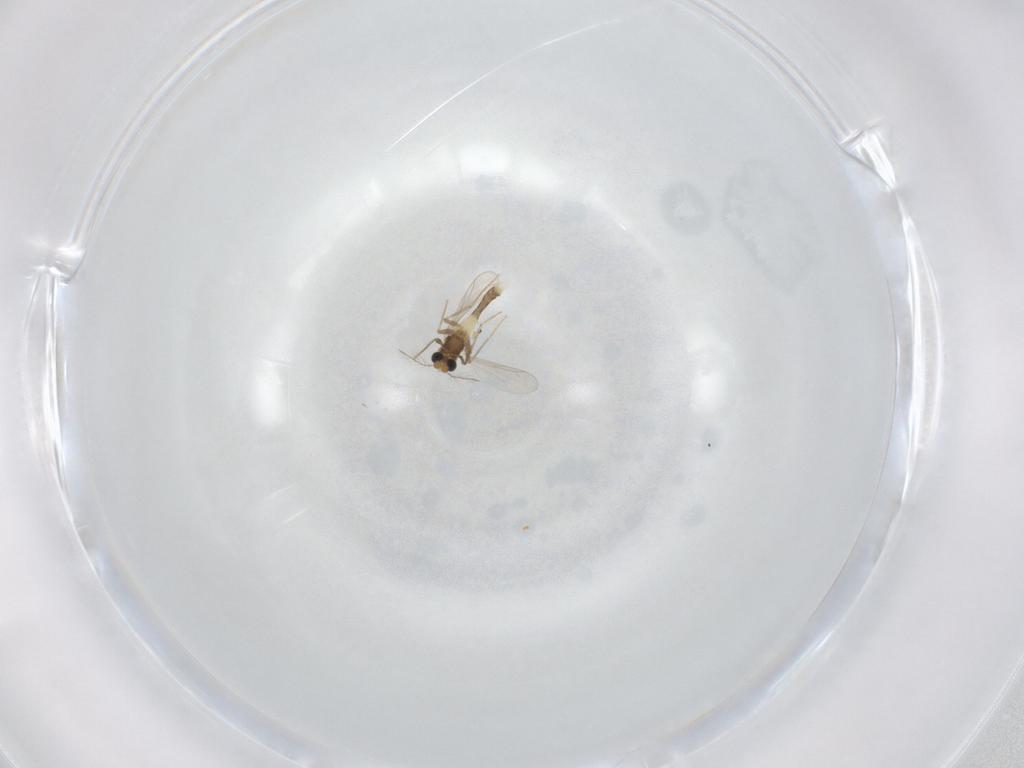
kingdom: Animalia
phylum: Arthropoda
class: Insecta
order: Diptera
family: Chironomidae
